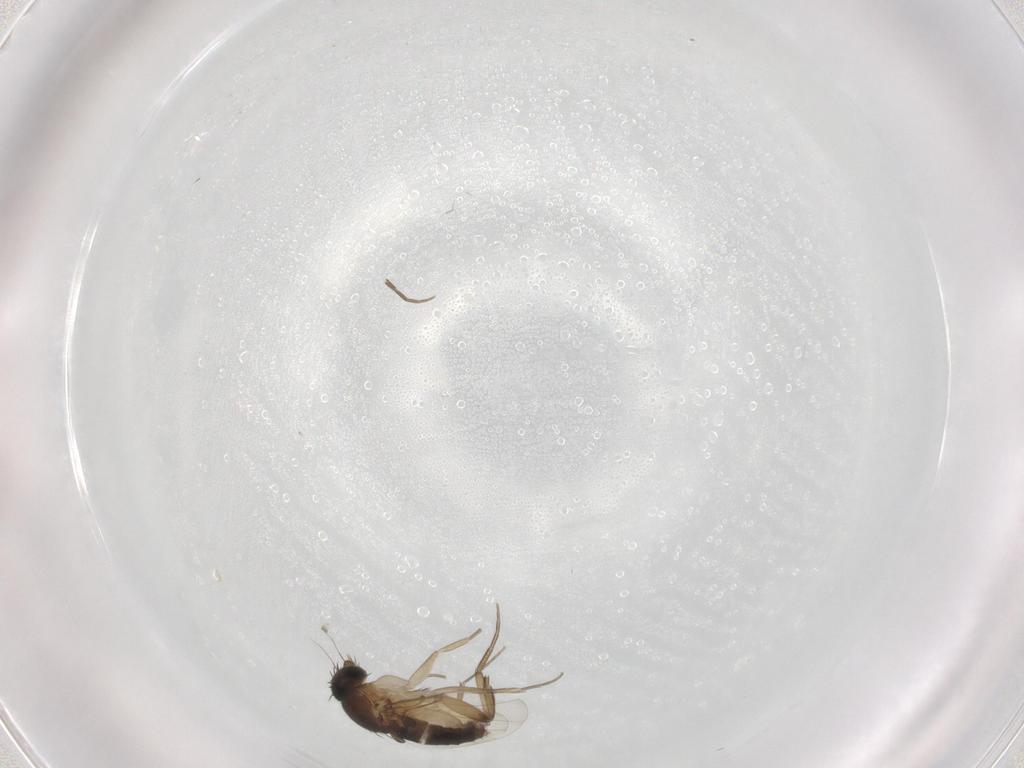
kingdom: Animalia
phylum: Arthropoda
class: Insecta
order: Diptera
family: Phoridae
